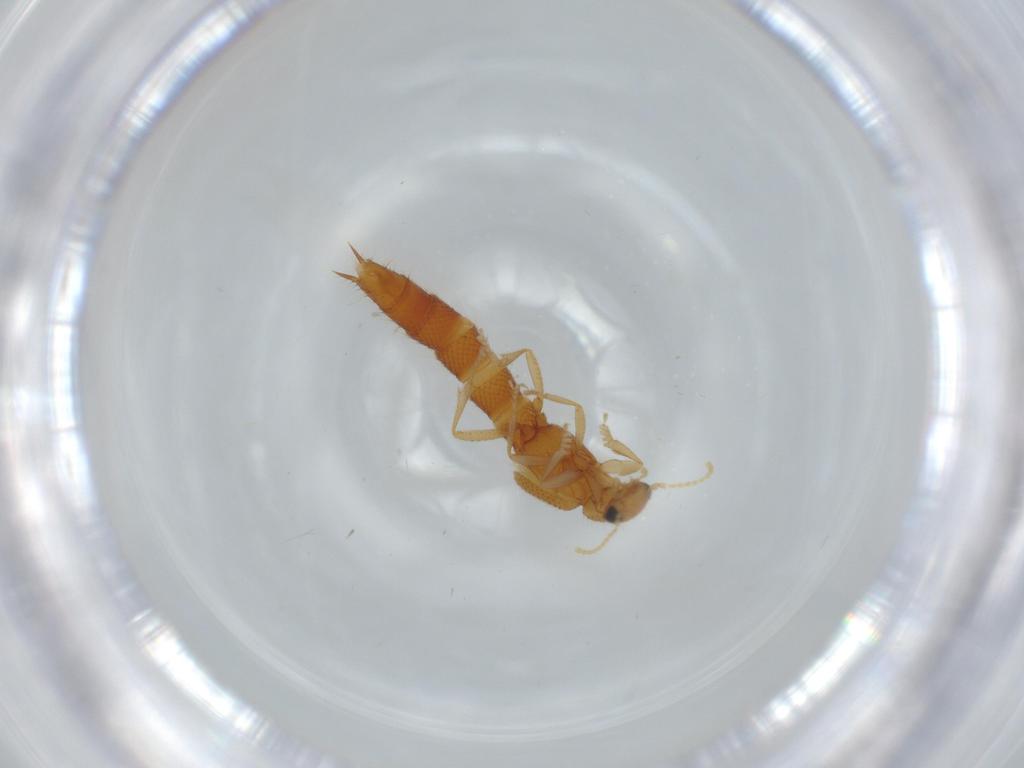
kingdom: Animalia
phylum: Arthropoda
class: Insecta
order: Coleoptera
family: Staphylinidae
